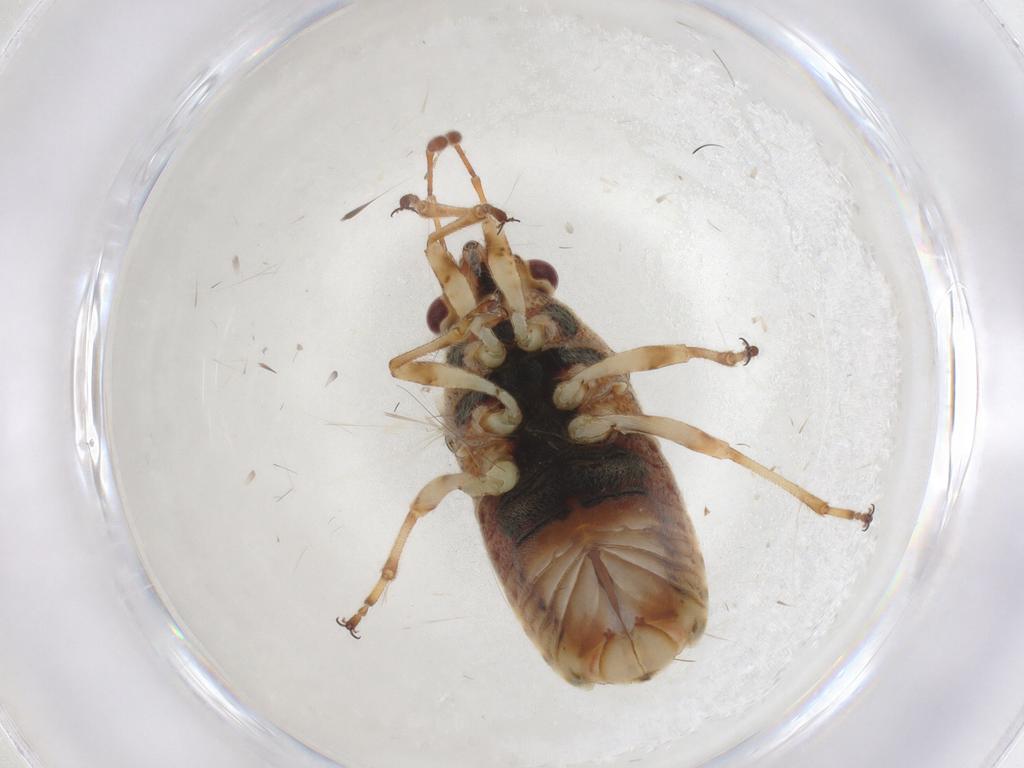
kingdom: Animalia
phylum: Arthropoda
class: Insecta
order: Hemiptera
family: Lygaeidae
